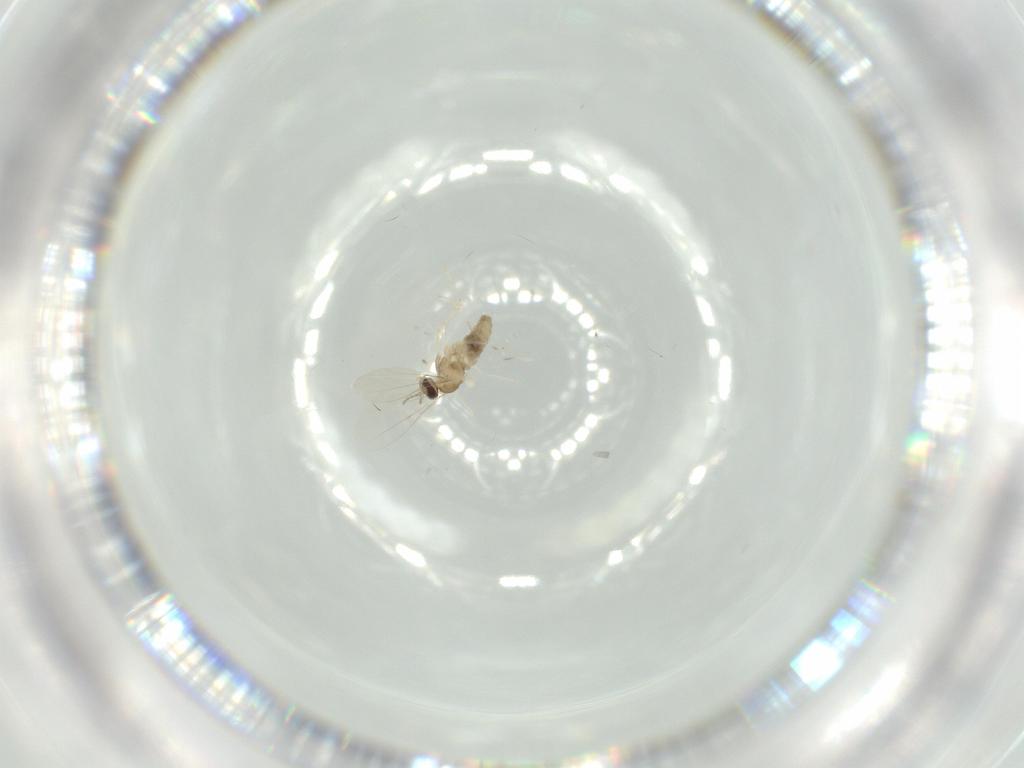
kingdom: Animalia
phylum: Arthropoda
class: Insecta
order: Diptera
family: Cecidomyiidae
